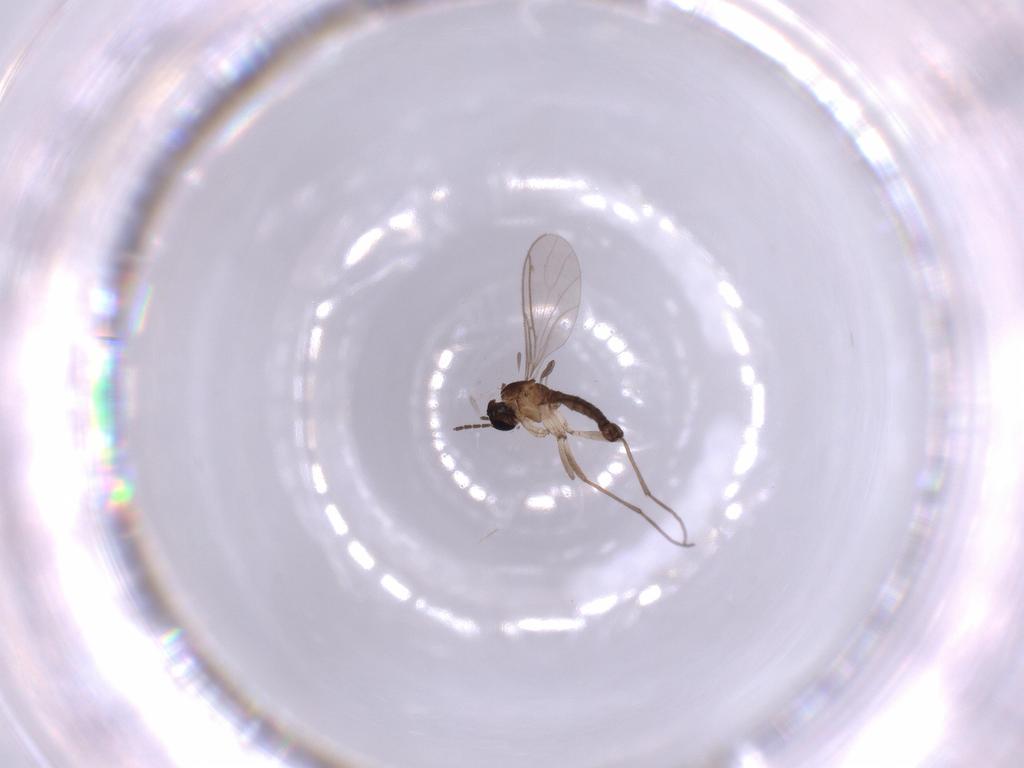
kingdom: Animalia
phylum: Arthropoda
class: Insecta
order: Diptera
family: Sciaridae
